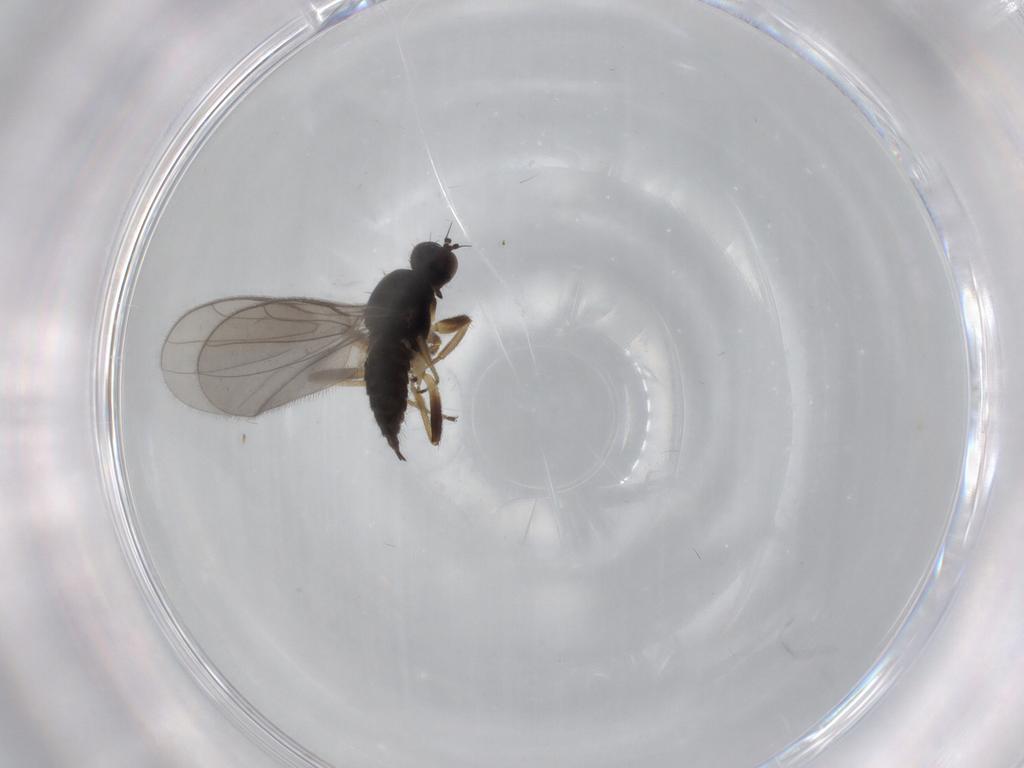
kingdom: Animalia
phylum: Arthropoda
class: Insecta
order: Diptera
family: Hybotidae
